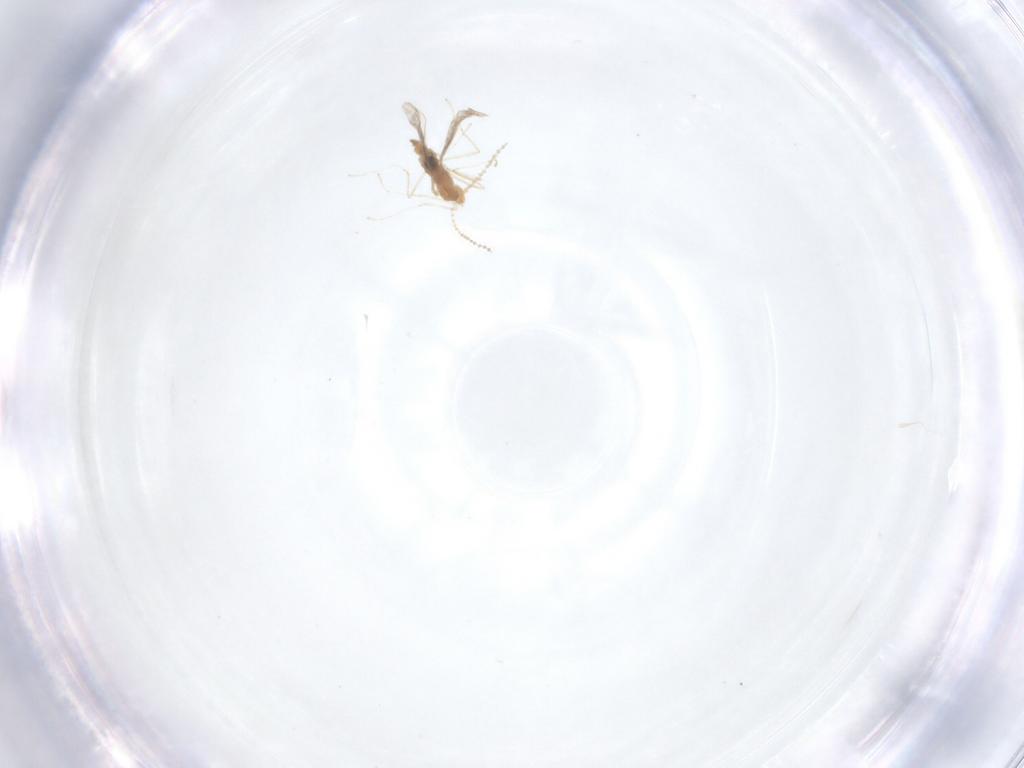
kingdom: Animalia
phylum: Arthropoda
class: Insecta
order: Diptera
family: Cecidomyiidae
